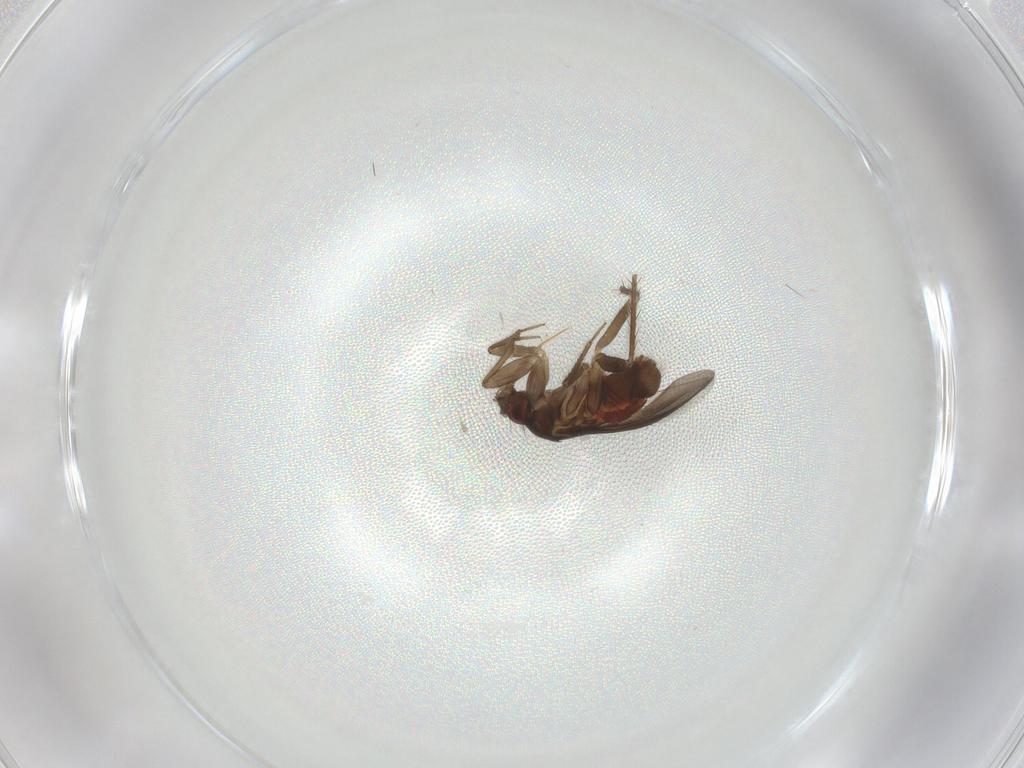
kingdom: Animalia
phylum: Arthropoda
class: Insecta
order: Hemiptera
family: Ceratocombidae
